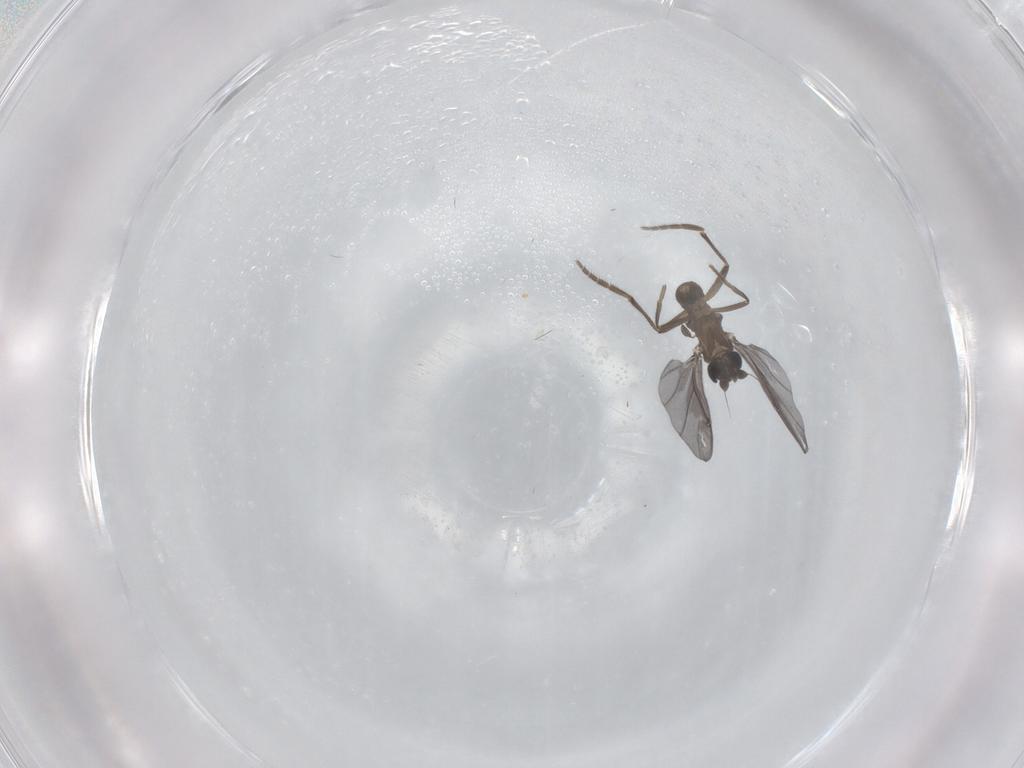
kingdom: Animalia
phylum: Arthropoda
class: Insecta
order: Diptera
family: Phoridae
